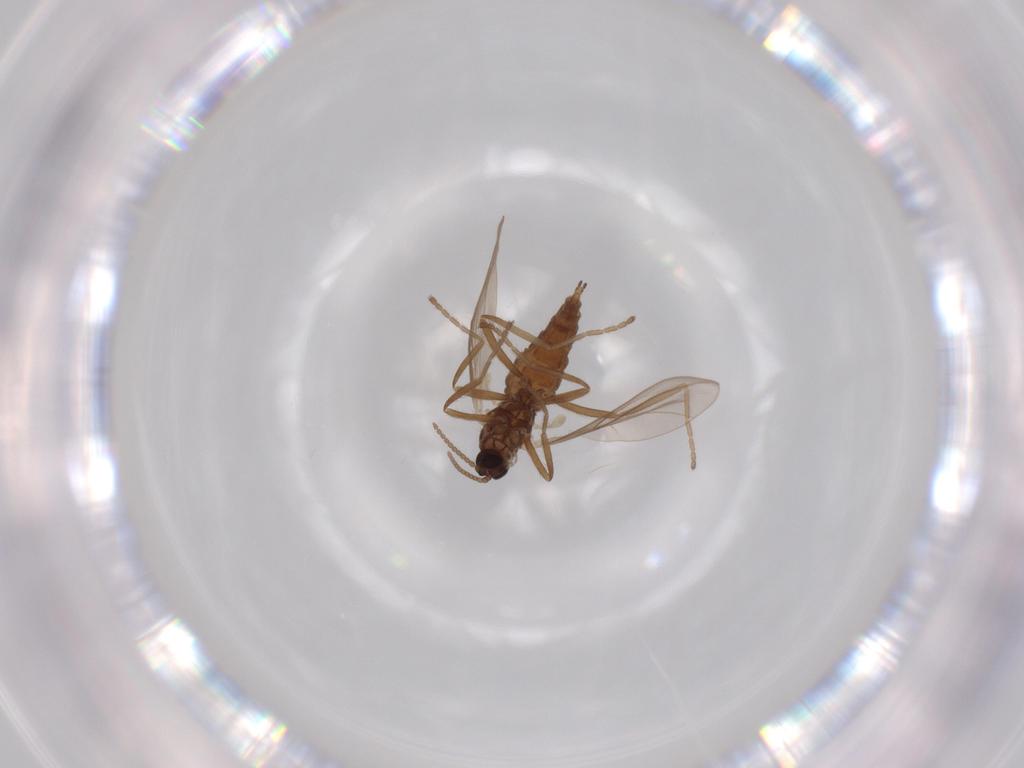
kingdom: Animalia
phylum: Arthropoda
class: Insecta
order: Diptera
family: Cecidomyiidae
